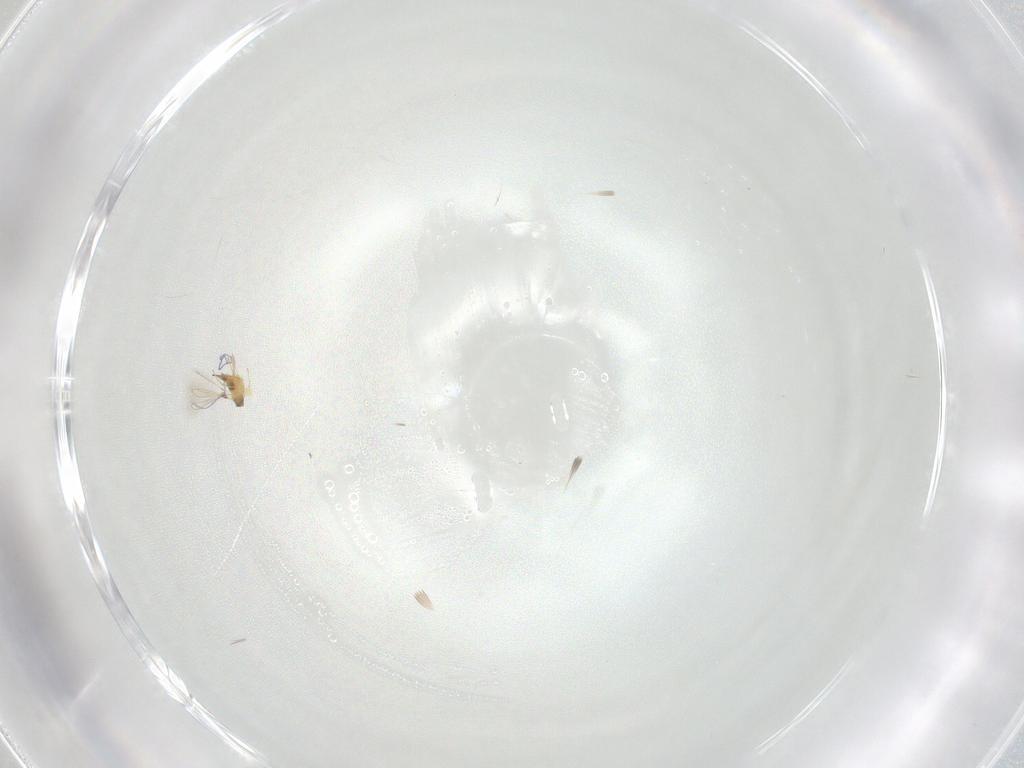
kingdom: Animalia
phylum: Arthropoda
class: Insecta
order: Hymenoptera
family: Mymaridae
